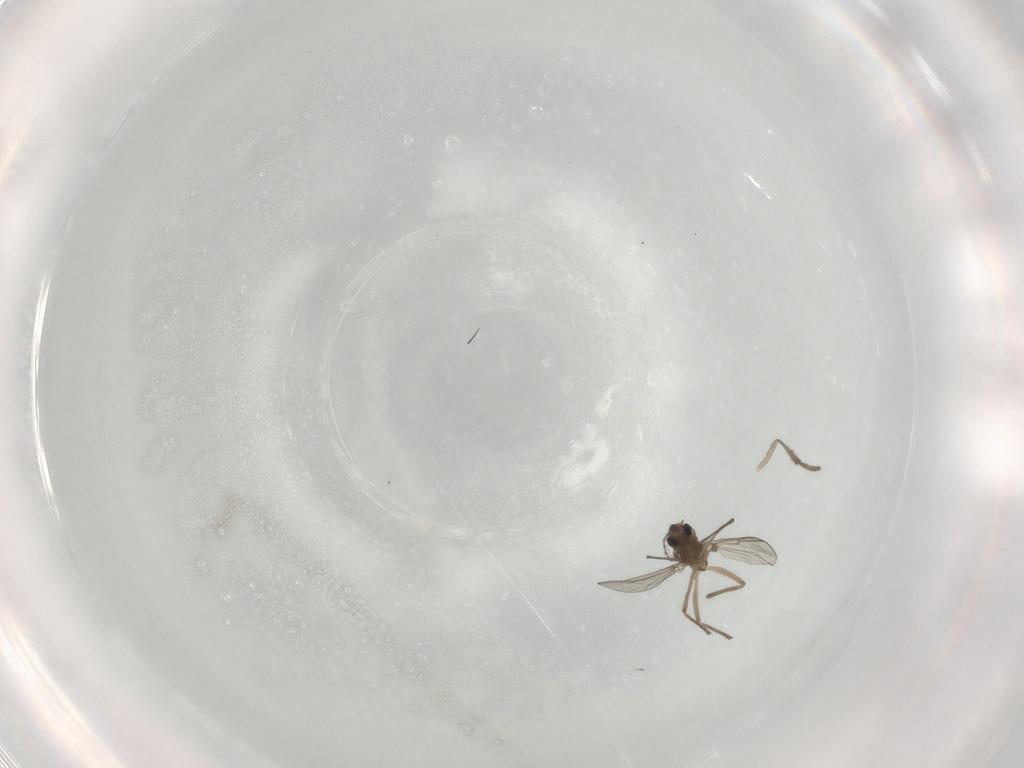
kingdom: Animalia
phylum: Arthropoda
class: Insecta
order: Diptera
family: Chironomidae
